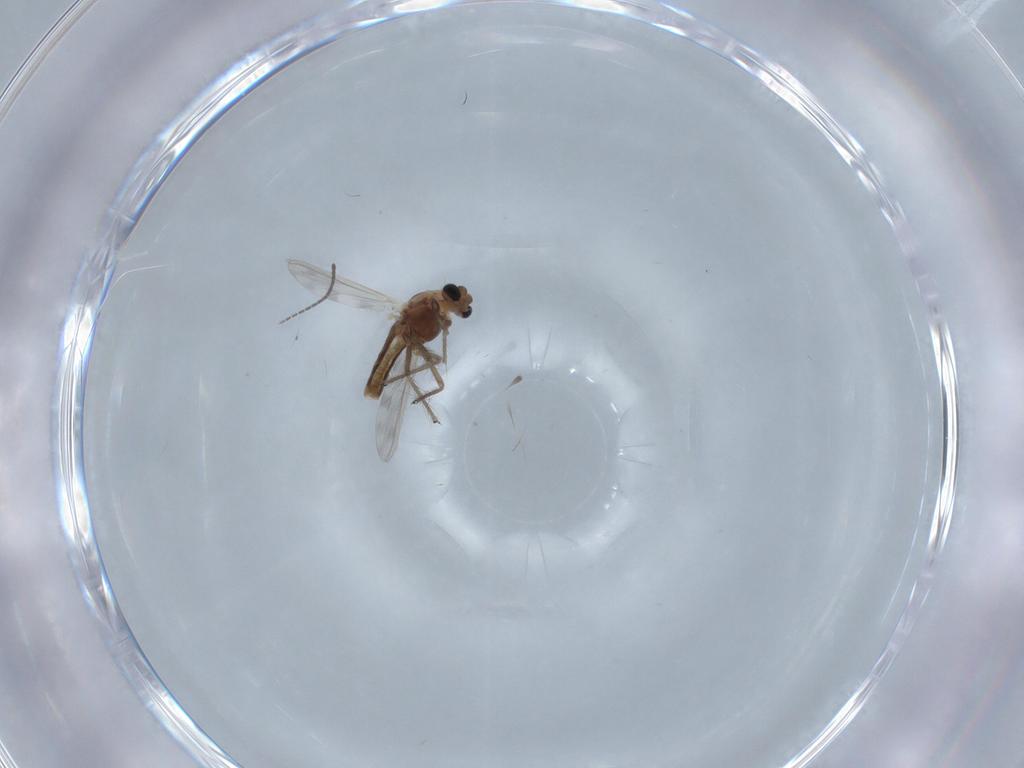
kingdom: Animalia
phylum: Arthropoda
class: Insecta
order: Diptera
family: Chironomidae
